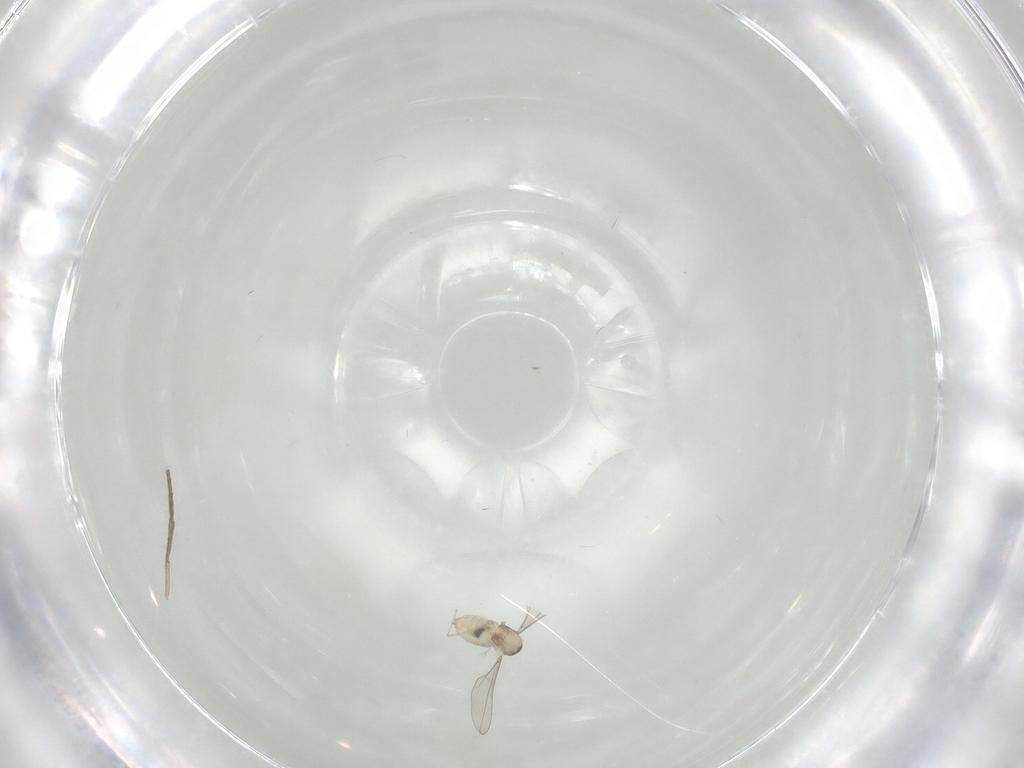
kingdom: Animalia
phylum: Arthropoda
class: Insecta
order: Diptera
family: Cecidomyiidae
